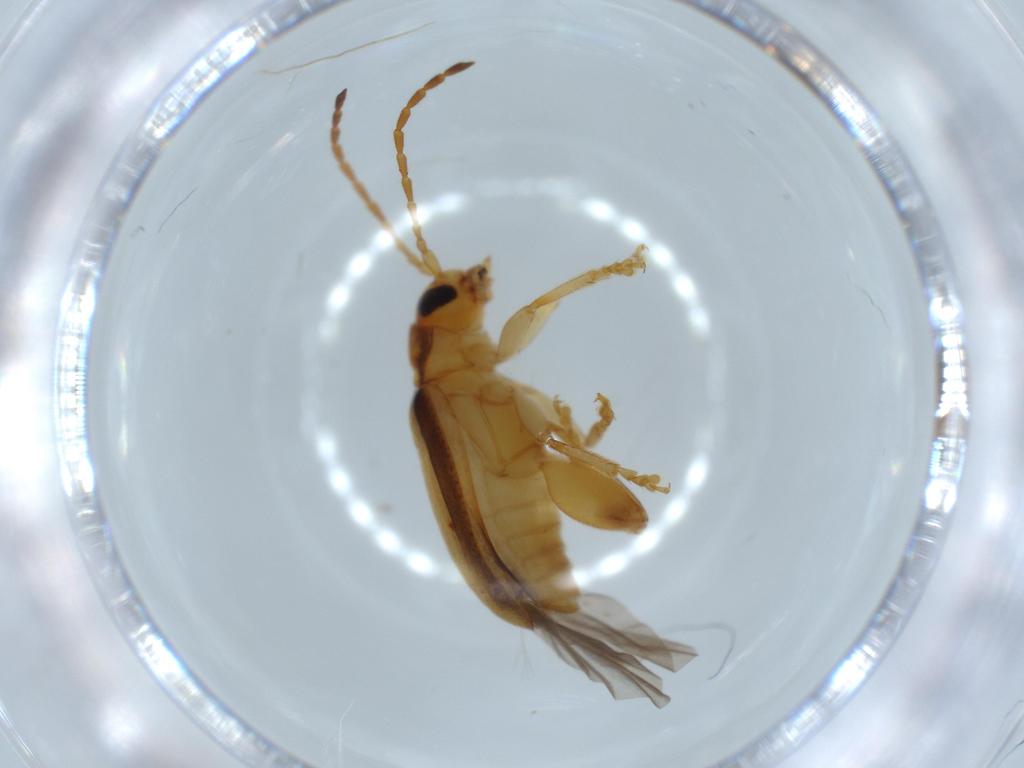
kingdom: Animalia
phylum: Arthropoda
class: Insecta
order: Coleoptera
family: Chrysomelidae
